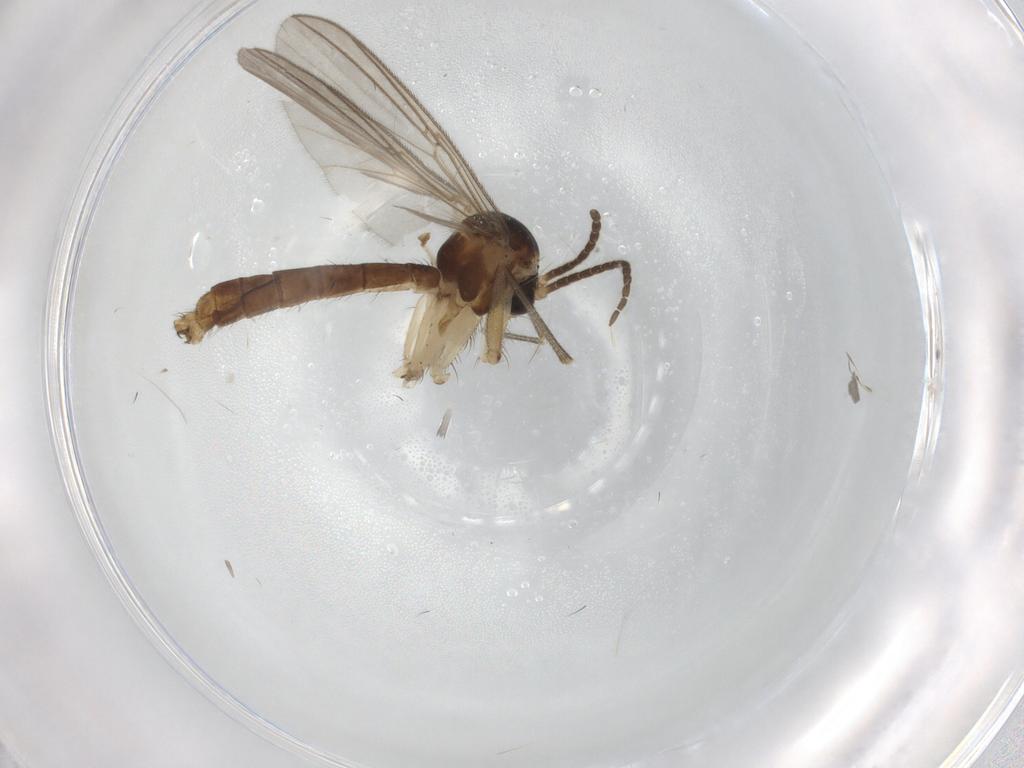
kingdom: Animalia
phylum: Arthropoda
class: Insecta
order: Diptera
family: Mycetophilidae
